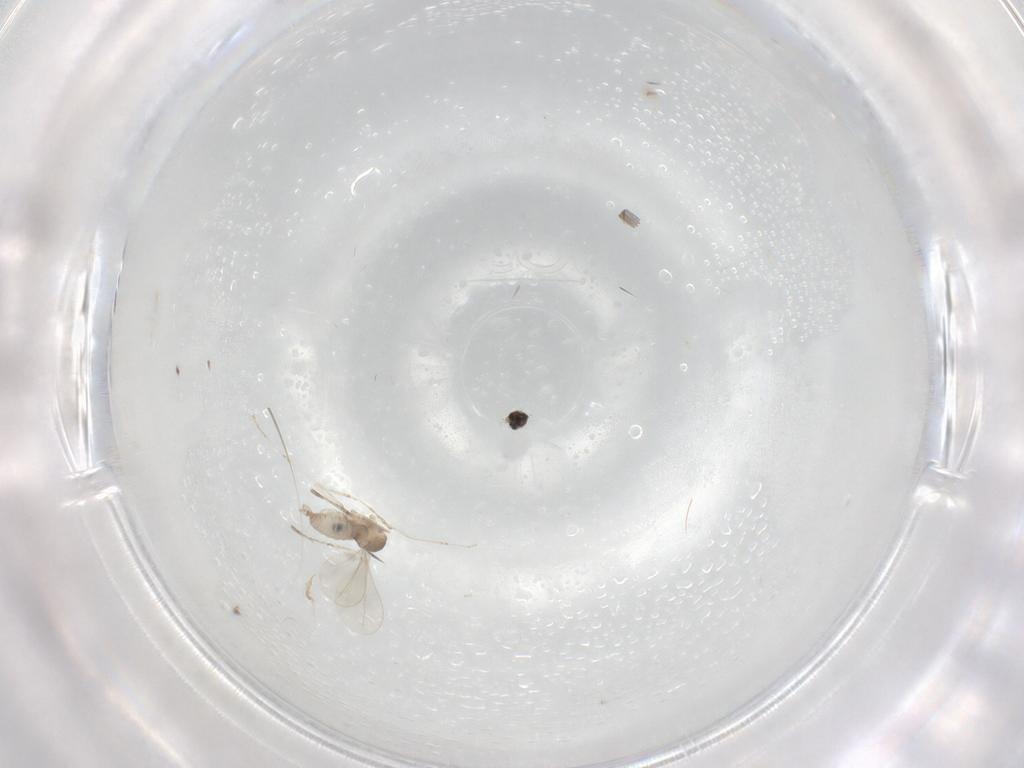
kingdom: Animalia
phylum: Arthropoda
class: Insecta
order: Diptera
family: Cecidomyiidae
